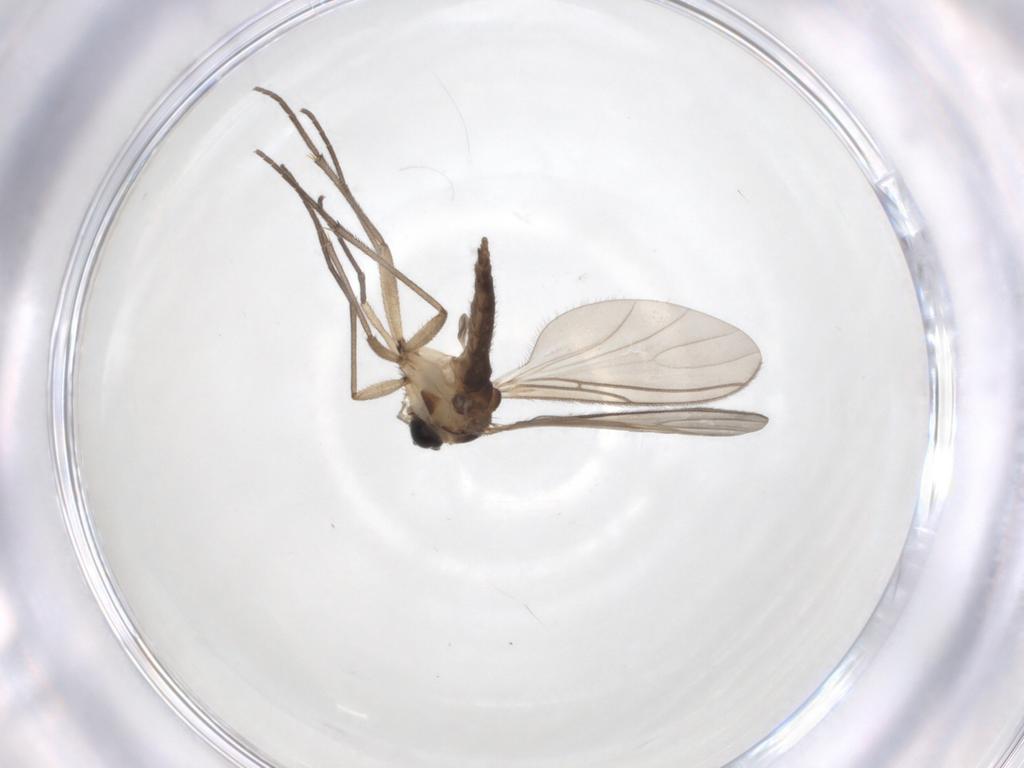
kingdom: Animalia
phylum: Arthropoda
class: Insecta
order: Diptera
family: Sciaridae
